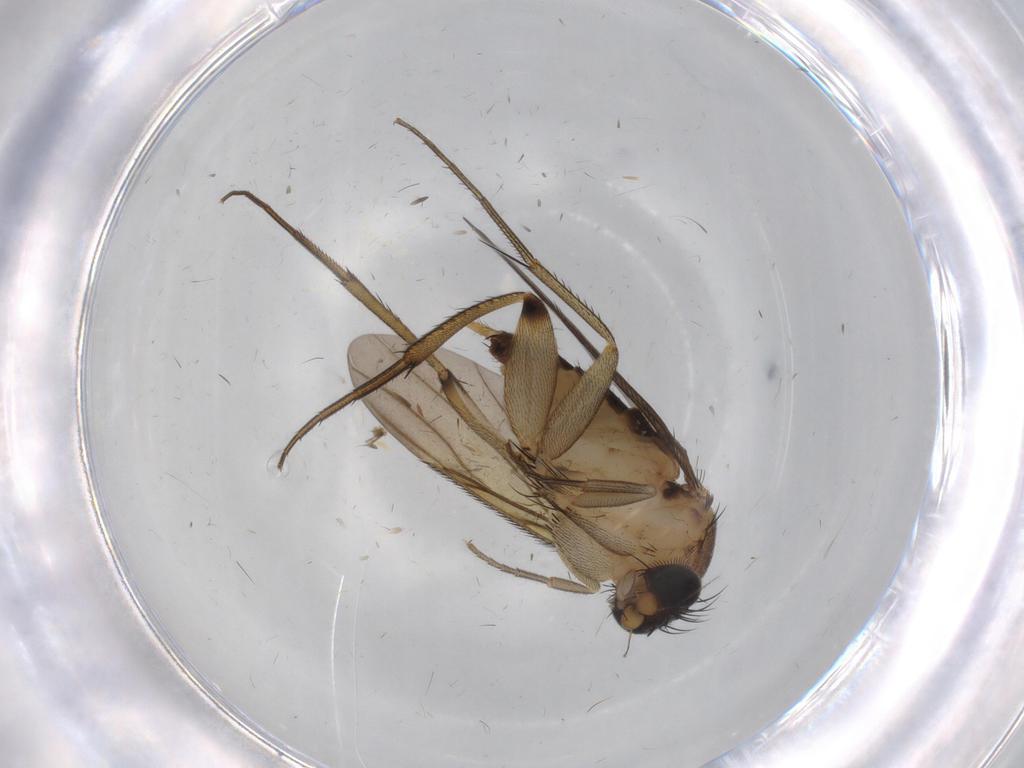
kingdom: Animalia
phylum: Arthropoda
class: Insecta
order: Diptera
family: Phoridae
